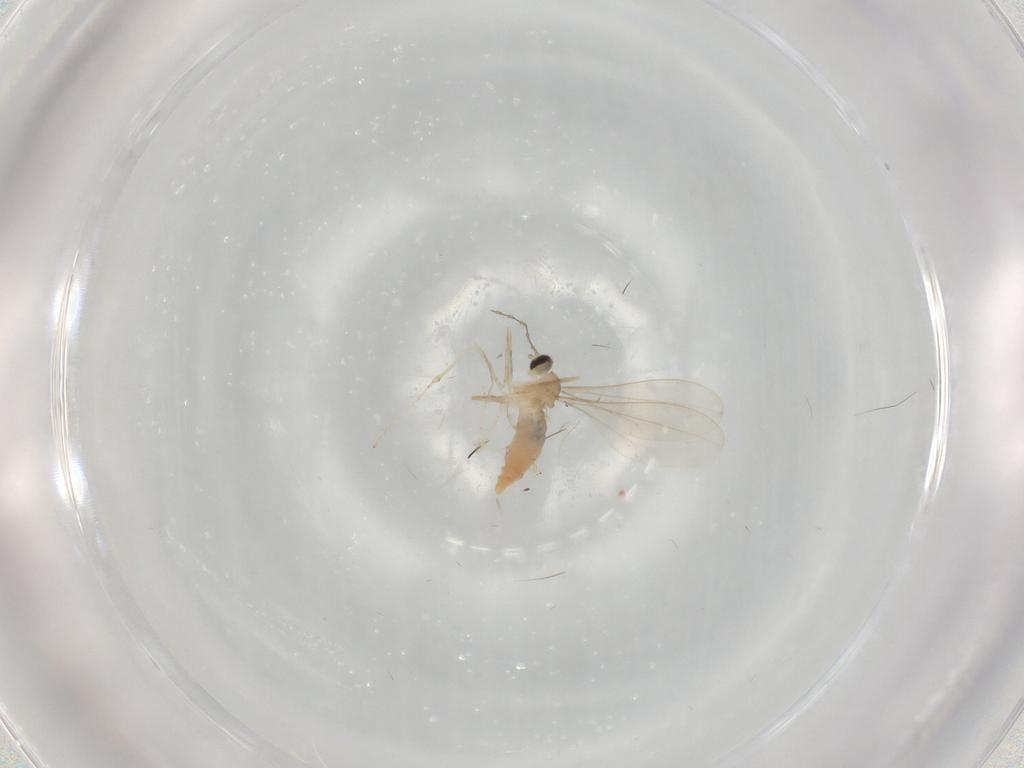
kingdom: Animalia
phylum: Arthropoda
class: Insecta
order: Diptera
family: Cecidomyiidae
